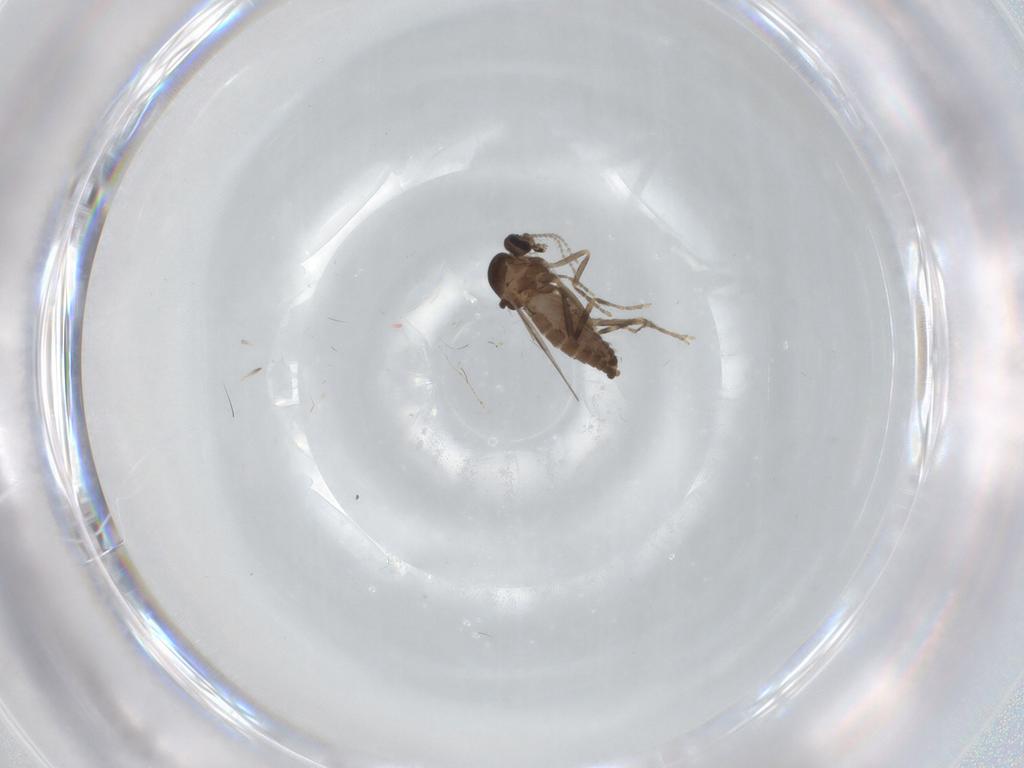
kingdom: Animalia
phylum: Arthropoda
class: Insecta
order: Diptera
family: Ceratopogonidae
